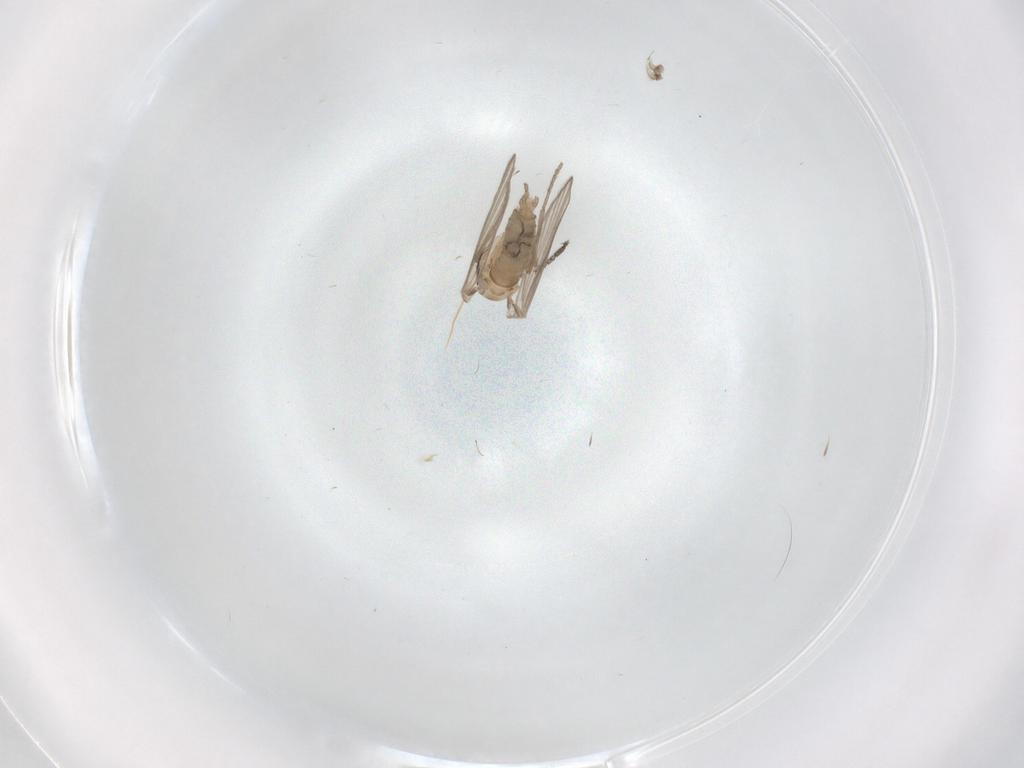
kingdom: Animalia
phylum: Arthropoda
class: Insecta
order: Diptera
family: Psychodidae
